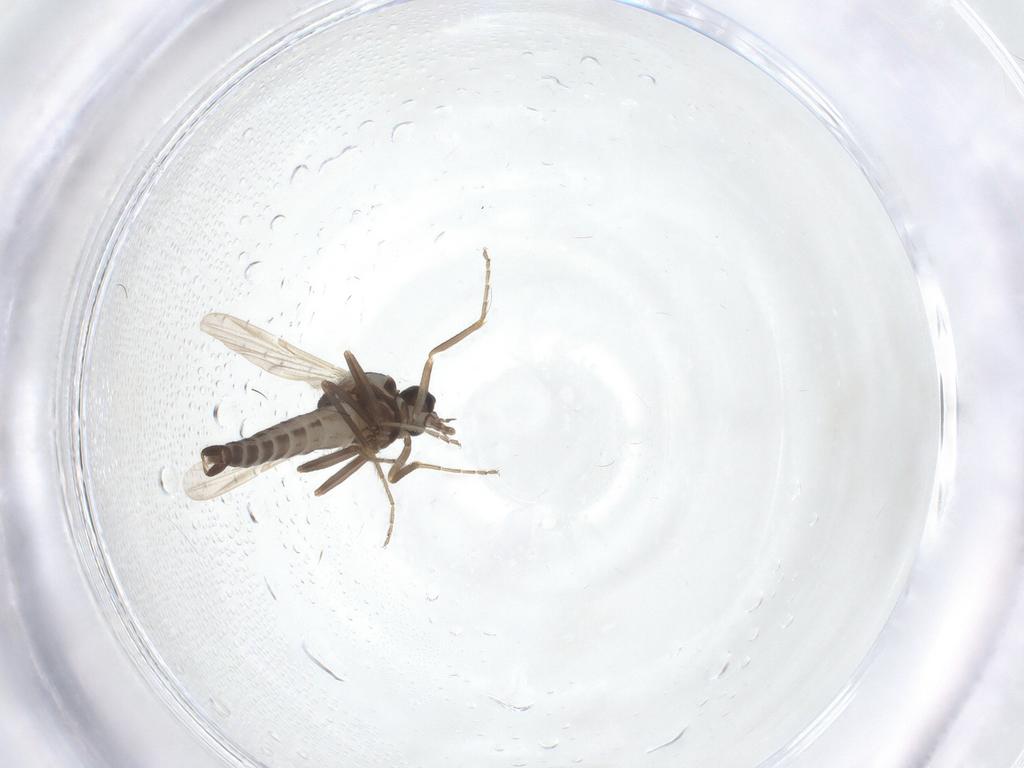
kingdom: Animalia
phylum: Arthropoda
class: Insecta
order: Diptera
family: Ceratopogonidae
